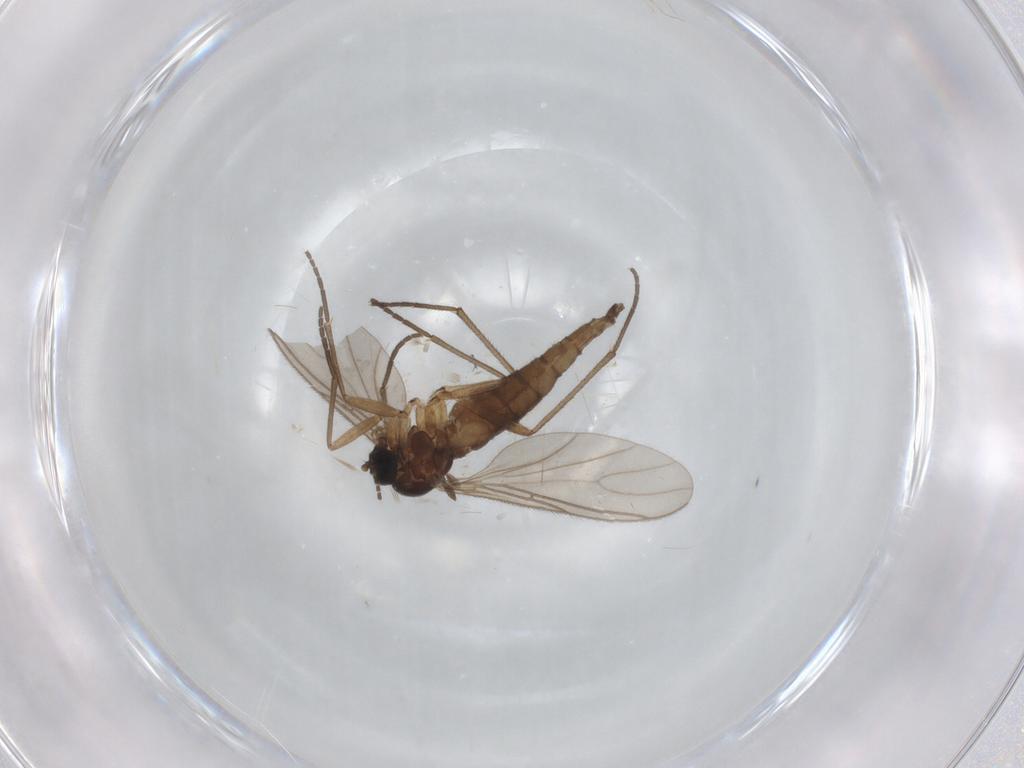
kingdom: Animalia
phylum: Arthropoda
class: Insecta
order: Diptera
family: Sciaridae
